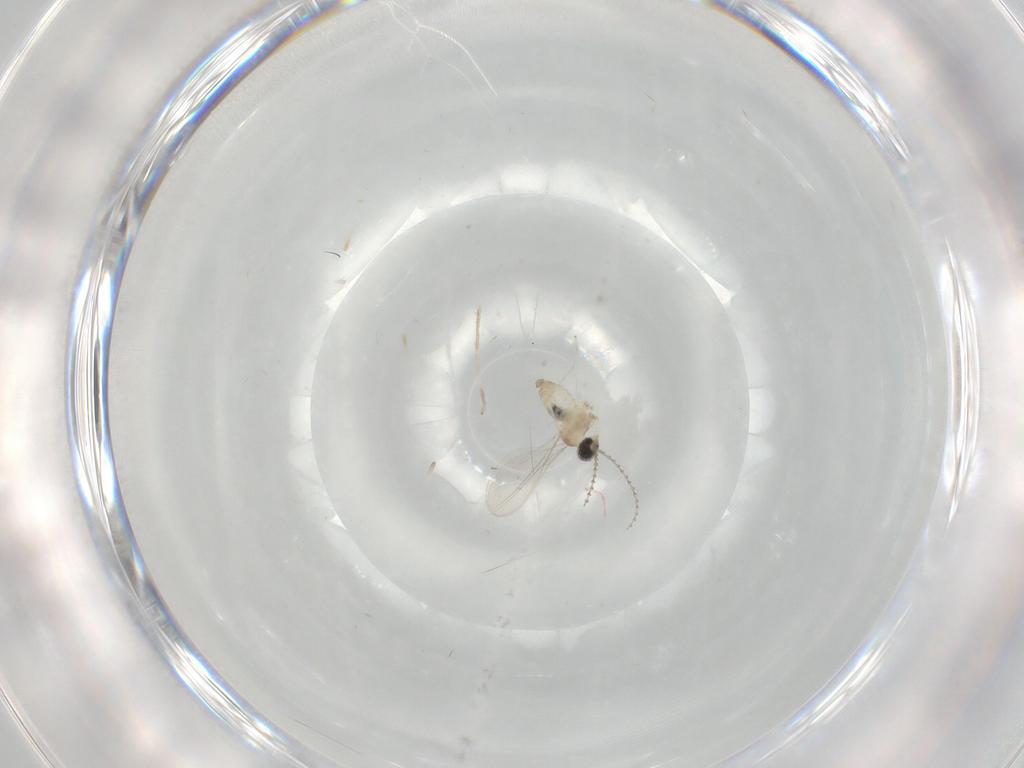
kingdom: Animalia
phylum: Arthropoda
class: Insecta
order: Diptera
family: Cecidomyiidae
